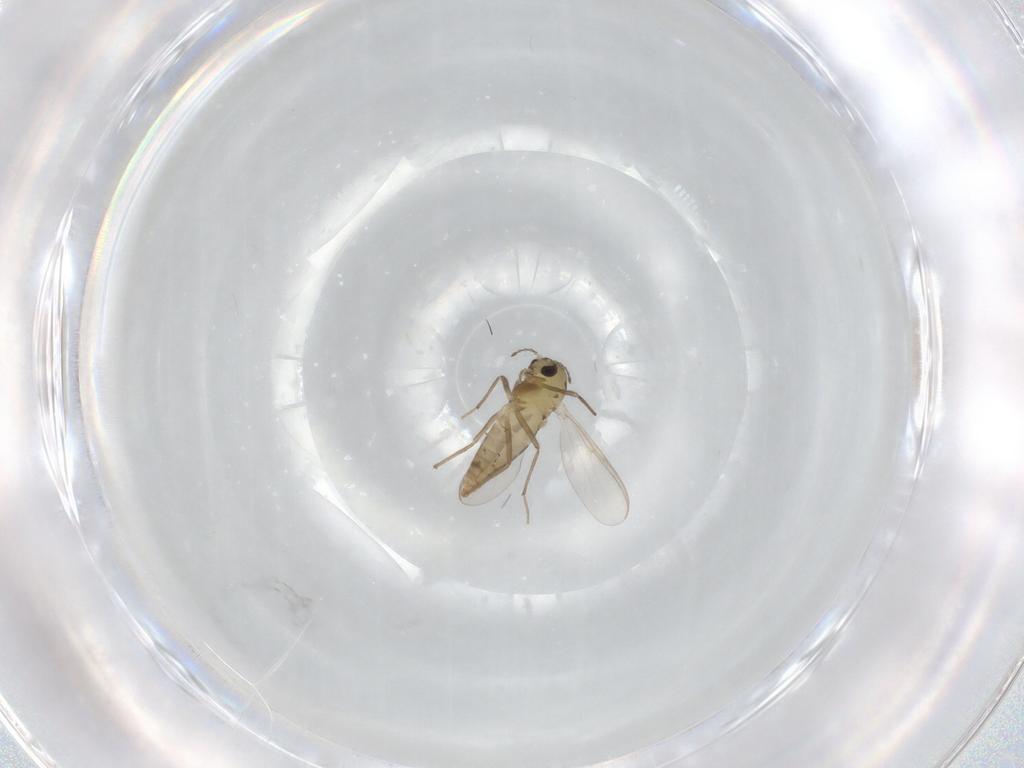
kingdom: Animalia
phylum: Arthropoda
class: Insecta
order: Diptera
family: Chironomidae
